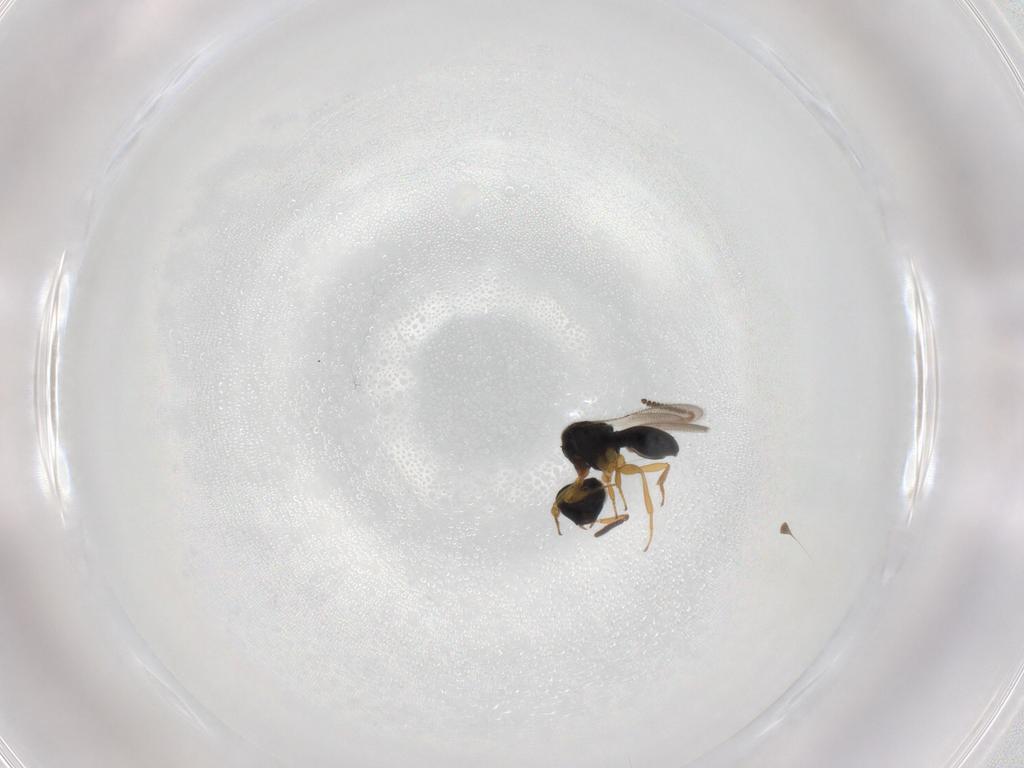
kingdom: Animalia
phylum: Arthropoda
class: Insecta
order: Hymenoptera
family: Scelionidae
